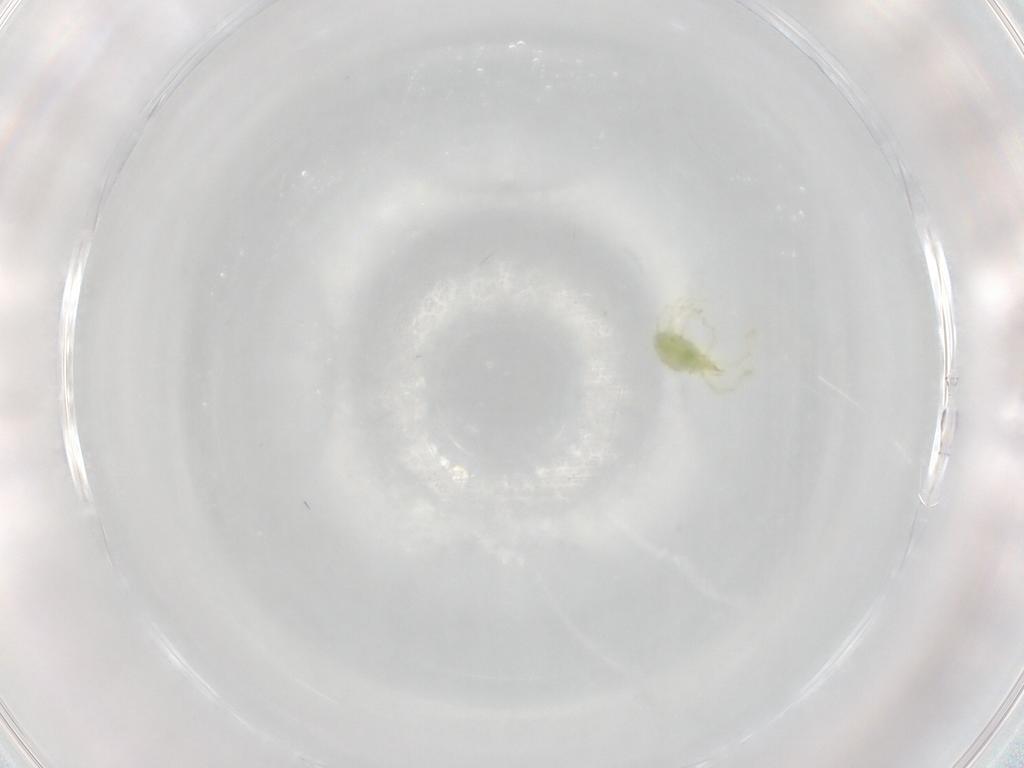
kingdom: Animalia
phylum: Arthropoda
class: Arachnida
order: Trombidiformes
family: Erythraeidae
